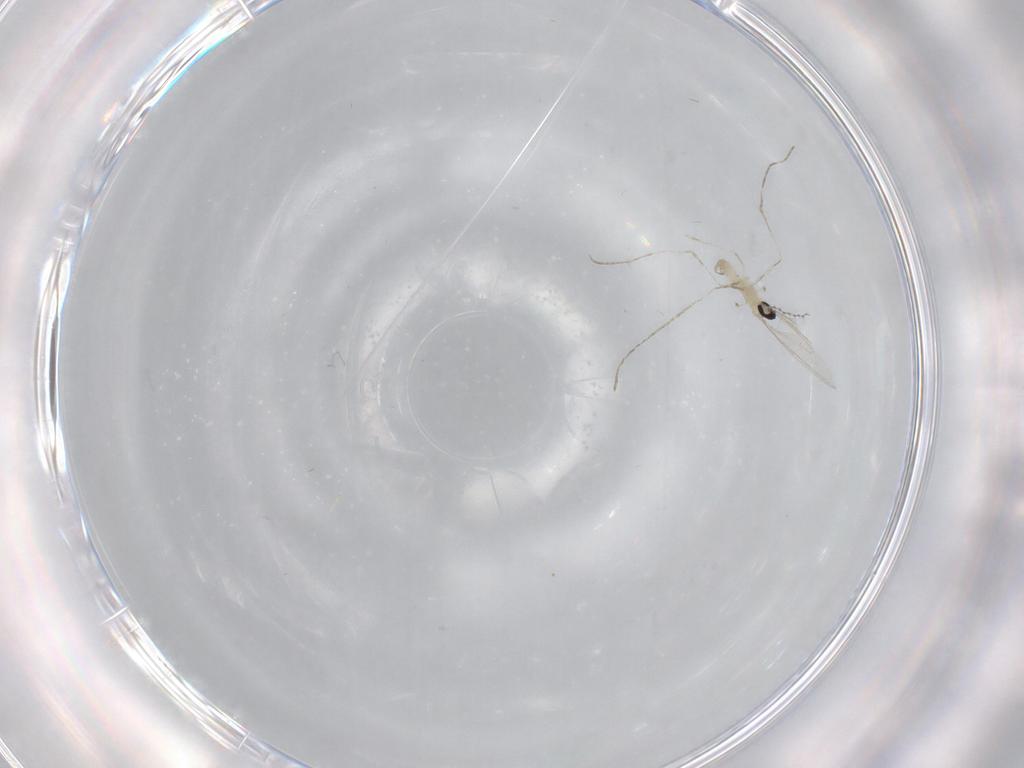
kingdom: Animalia
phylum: Arthropoda
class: Insecta
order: Diptera
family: Cecidomyiidae
